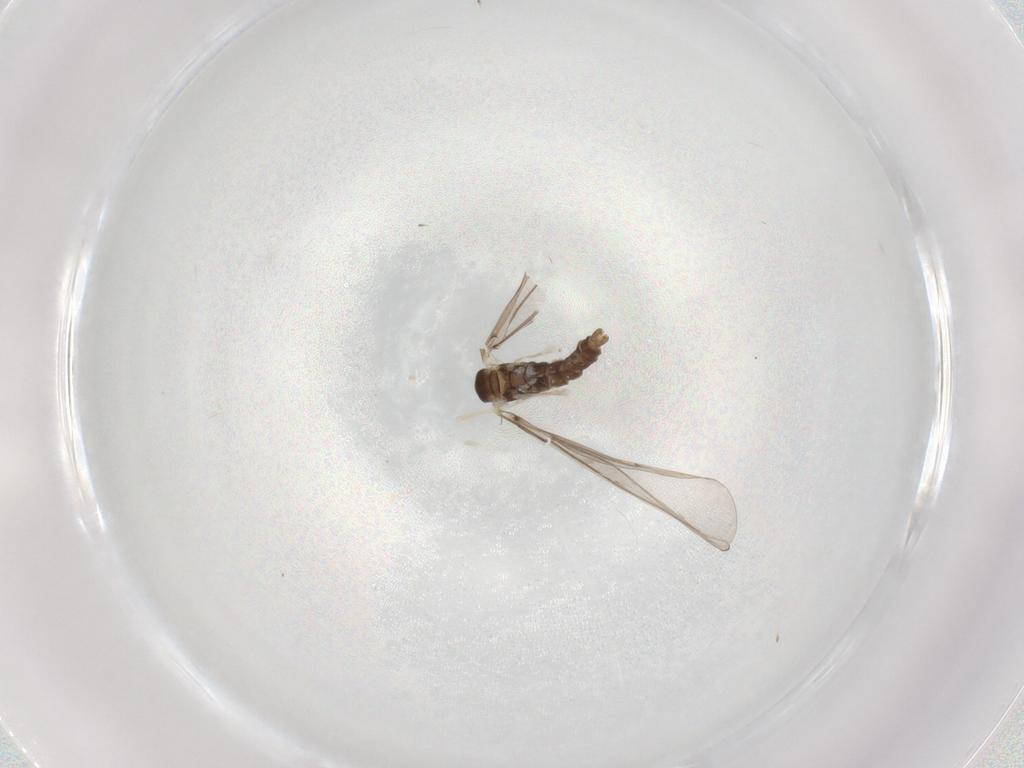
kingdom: Animalia
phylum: Arthropoda
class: Insecta
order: Diptera
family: Cecidomyiidae
